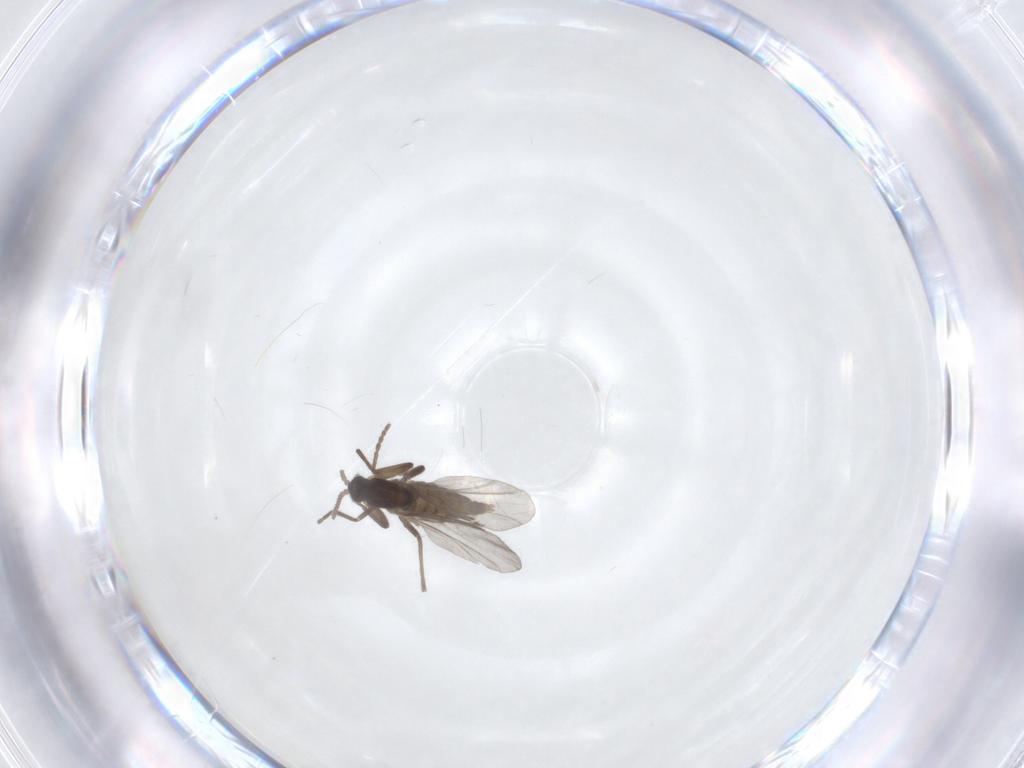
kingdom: Animalia
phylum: Arthropoda
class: Insecta
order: Diptera
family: Cecidomyiidae
